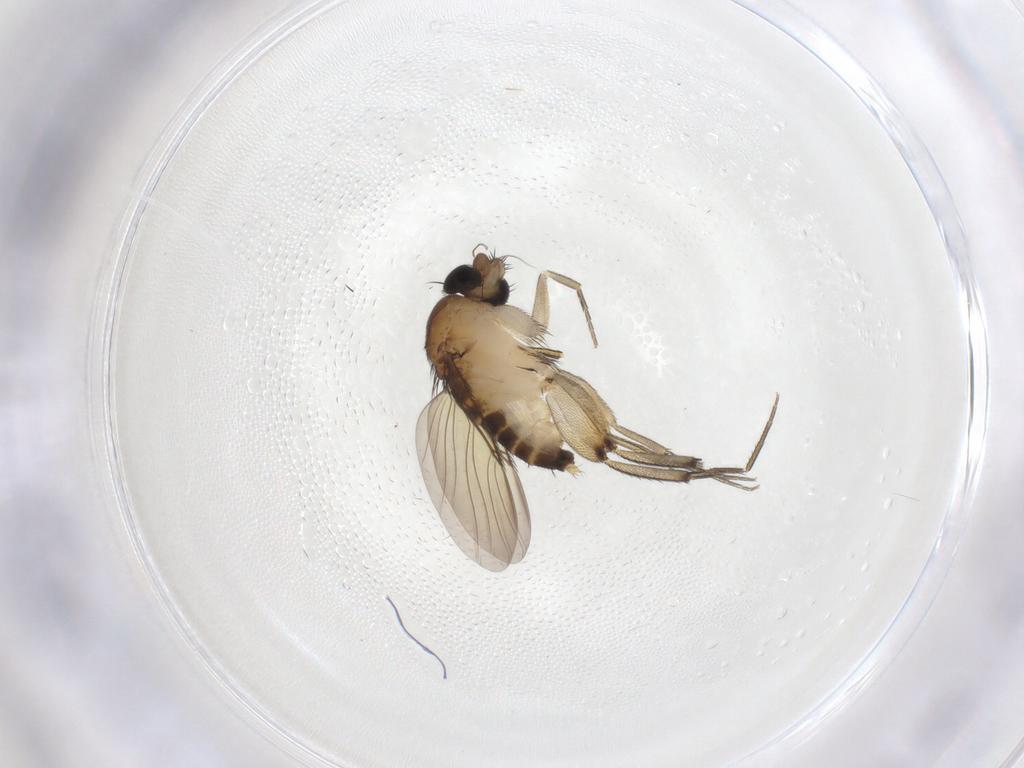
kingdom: Animalia
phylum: Arthropoda
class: Insecta
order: Diptera
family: Phoridae
